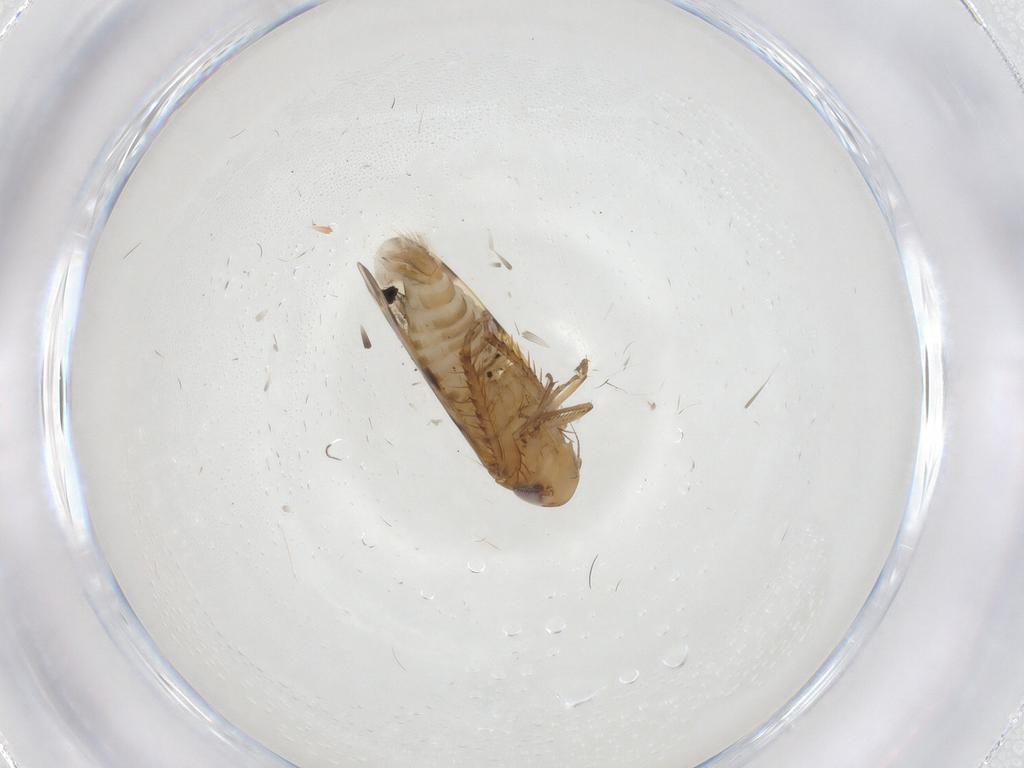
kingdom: Animalia
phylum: Arthropoda
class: Insecta
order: Hemiptera
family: Cicadellidae
